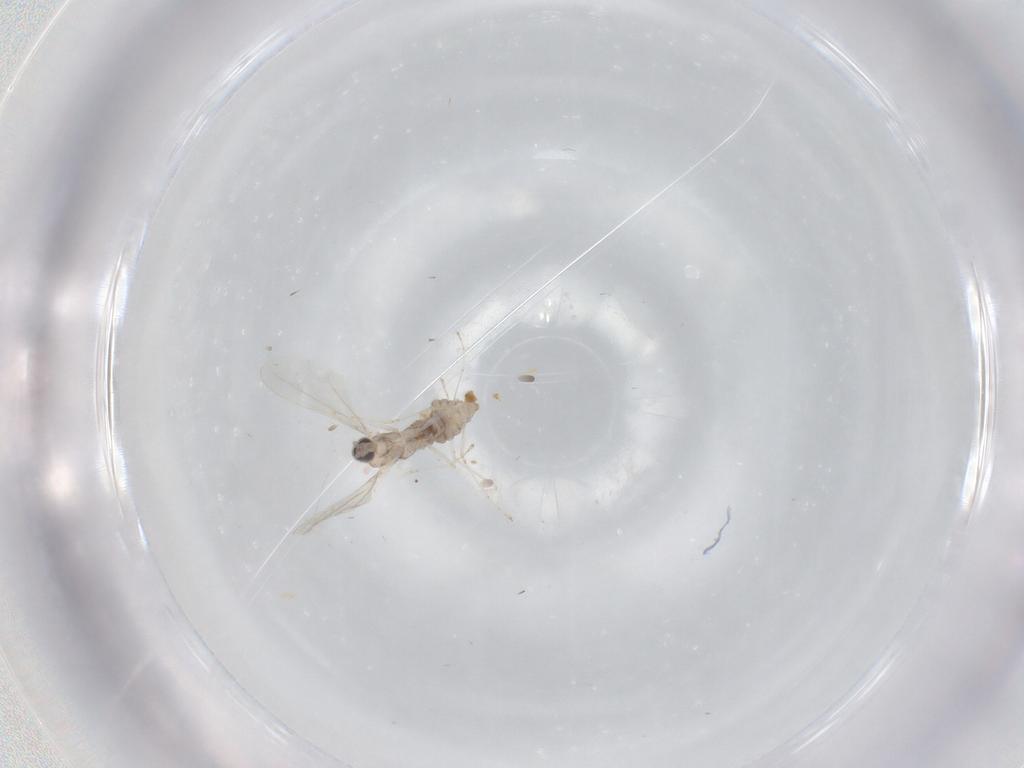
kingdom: Animalia
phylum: Arthropoda
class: Insecta
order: Diptera
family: Cecidomyiidae
